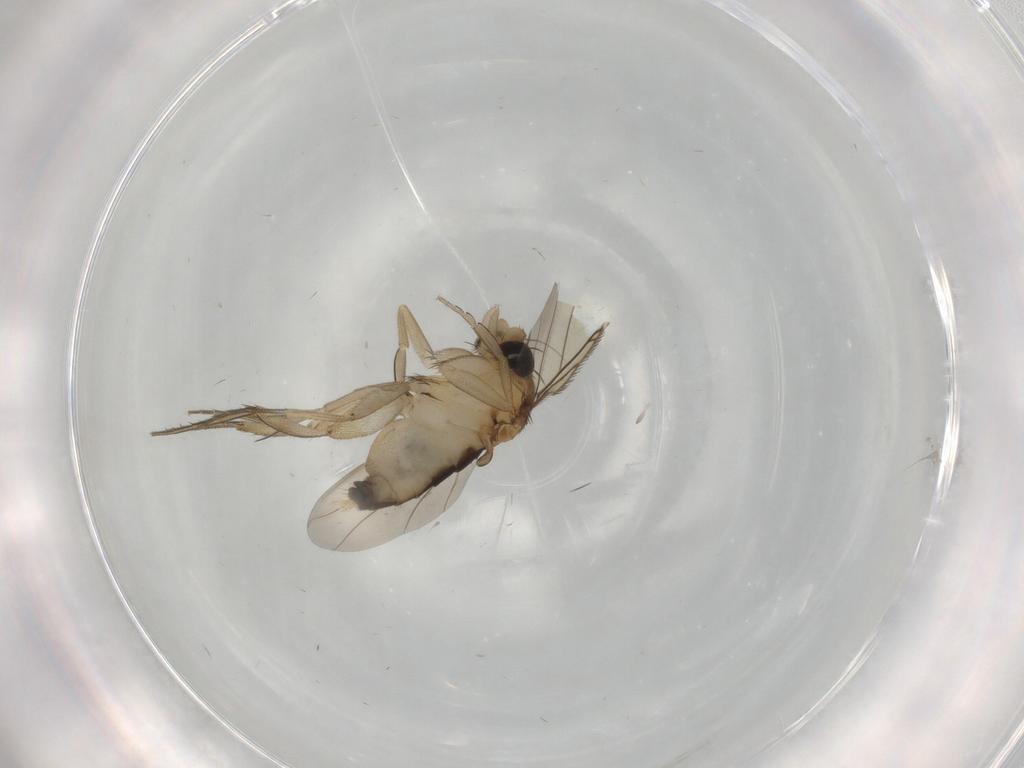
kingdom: Animalia
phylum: Arthropoda
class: Insecta
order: Diptera
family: Phoridae
